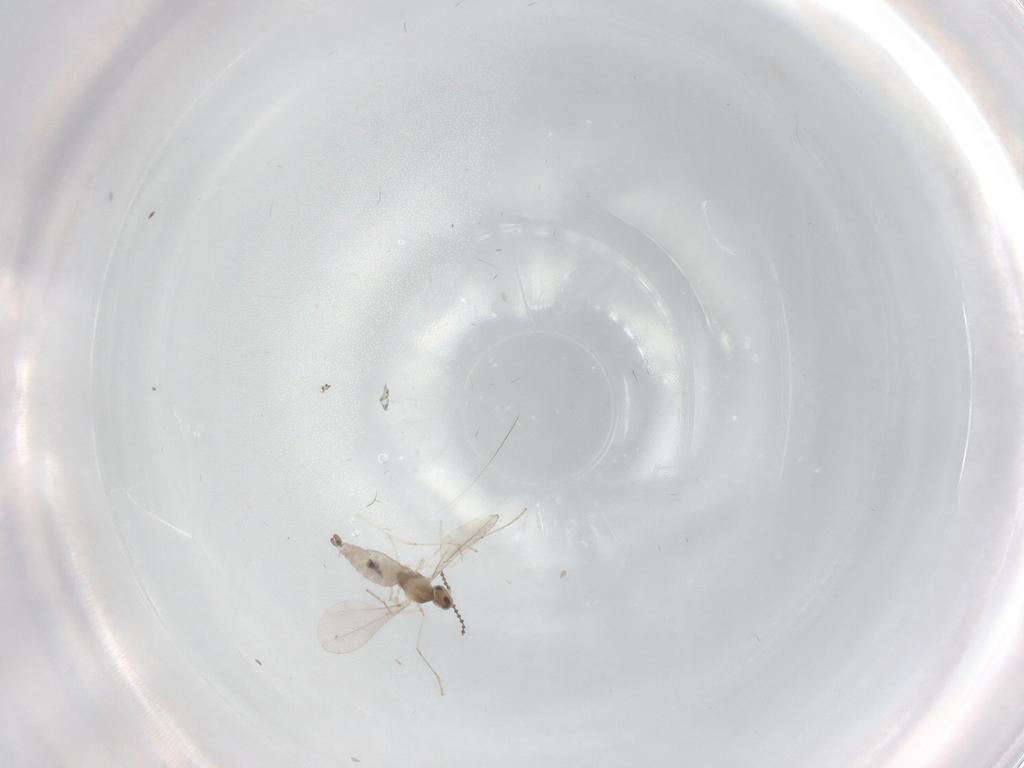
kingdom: Animalia
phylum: Arthropoda
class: Insecta
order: Diptera
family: Cecidomyiidae
